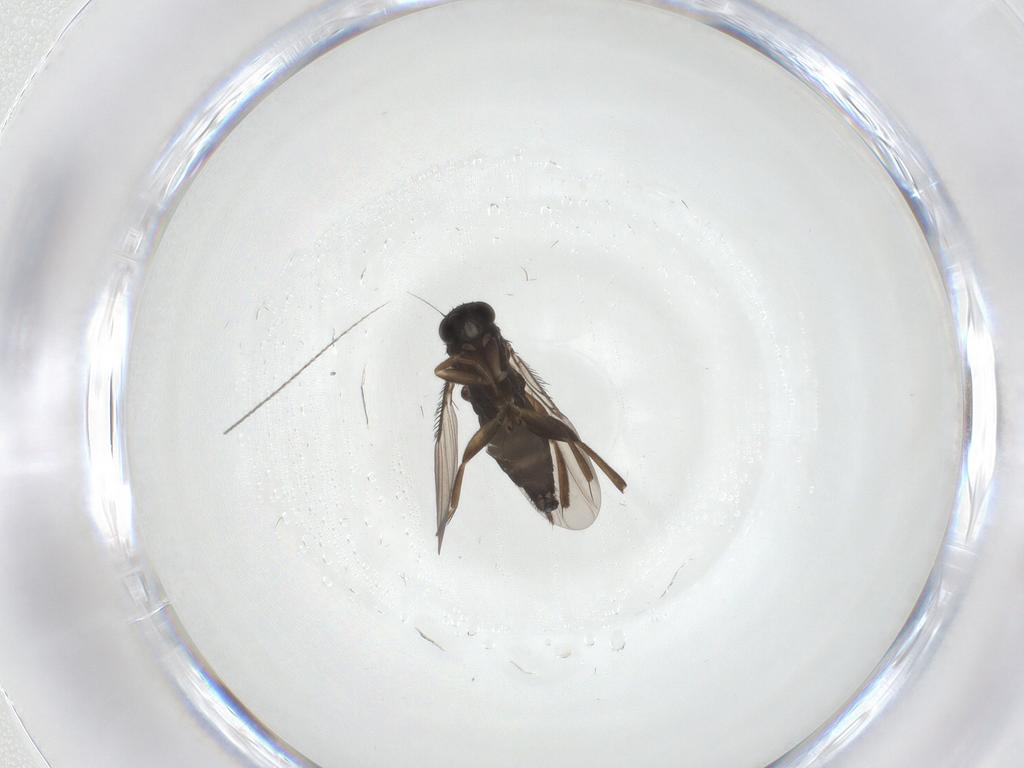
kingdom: Animalia
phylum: Arthropoda
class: Insecta
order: Diptera
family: Phoridae
